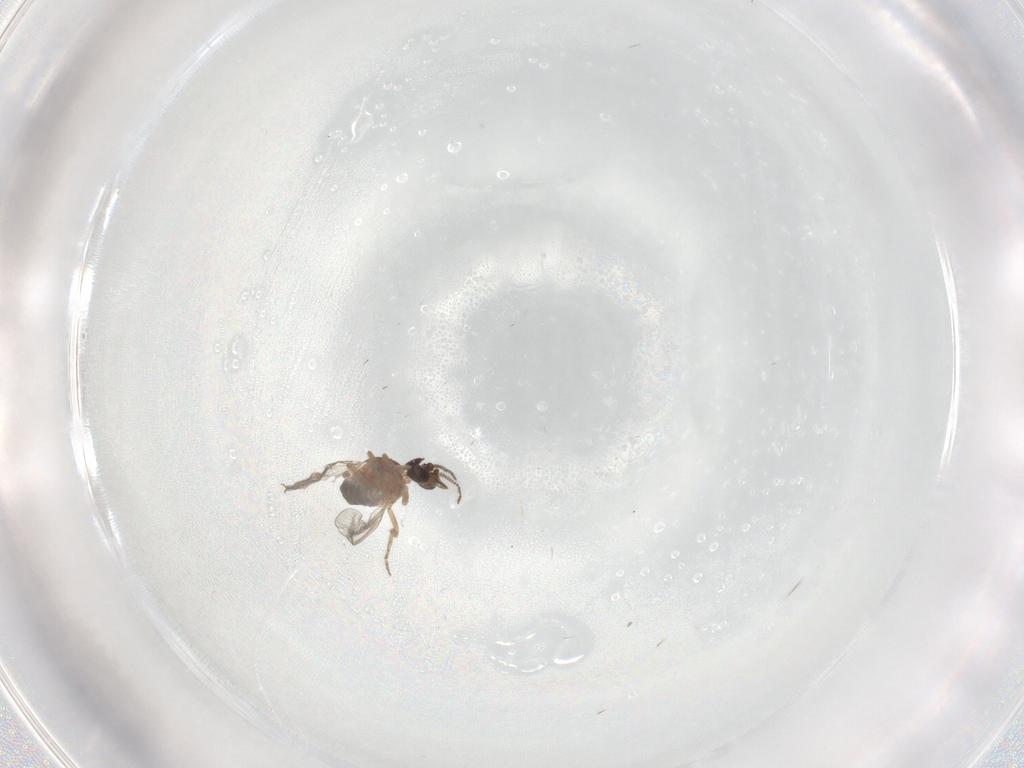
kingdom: Animalia
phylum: Arthropoda
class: Insecta
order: Diptera
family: Ceratopogonidae
